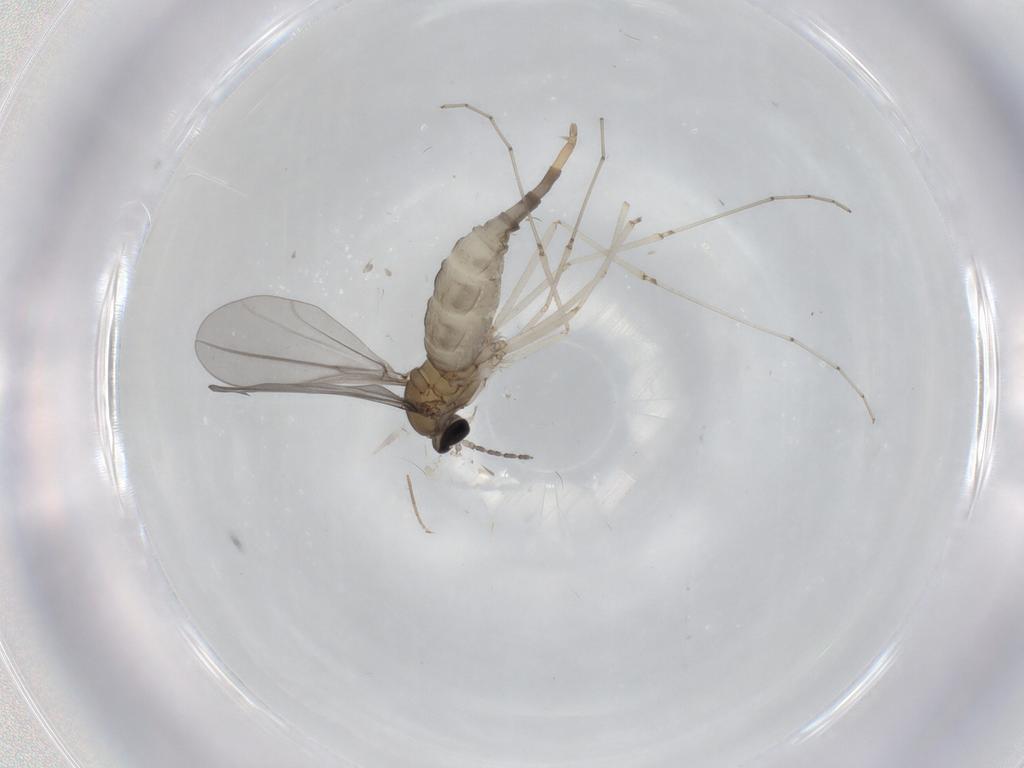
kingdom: Animalia
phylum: Arthropoda
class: Insecta
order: Diptera
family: Cecidomyiidae
